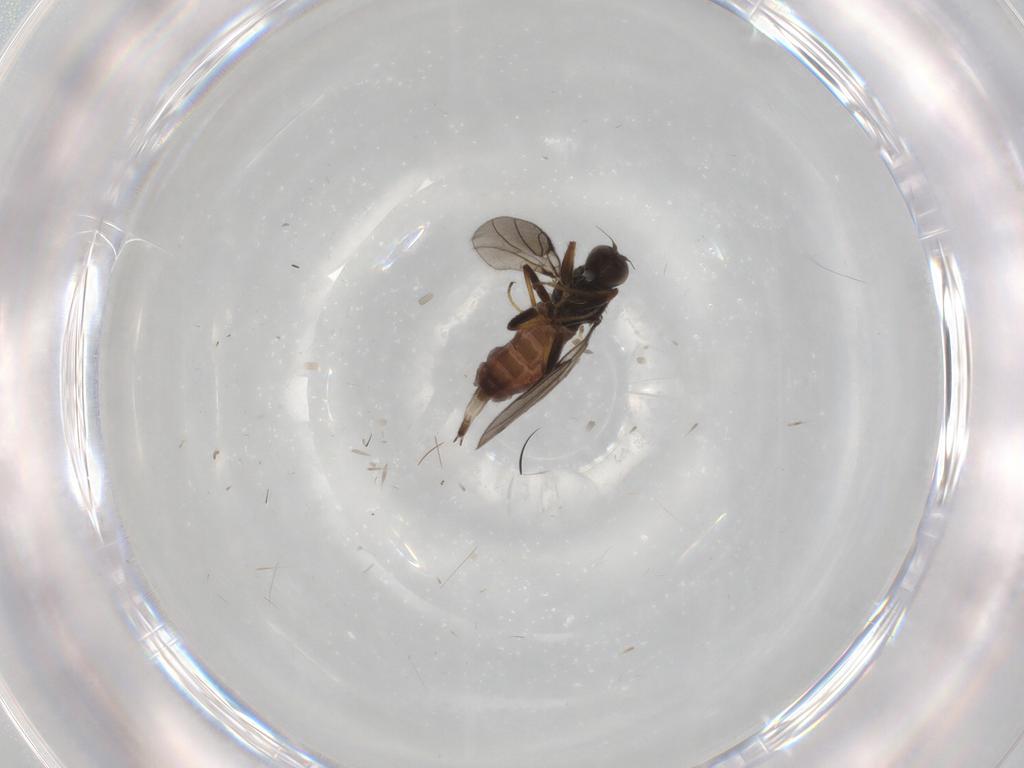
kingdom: Animalia
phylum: Arthropoda
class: Insecta
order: Diptera
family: Hybotidae
